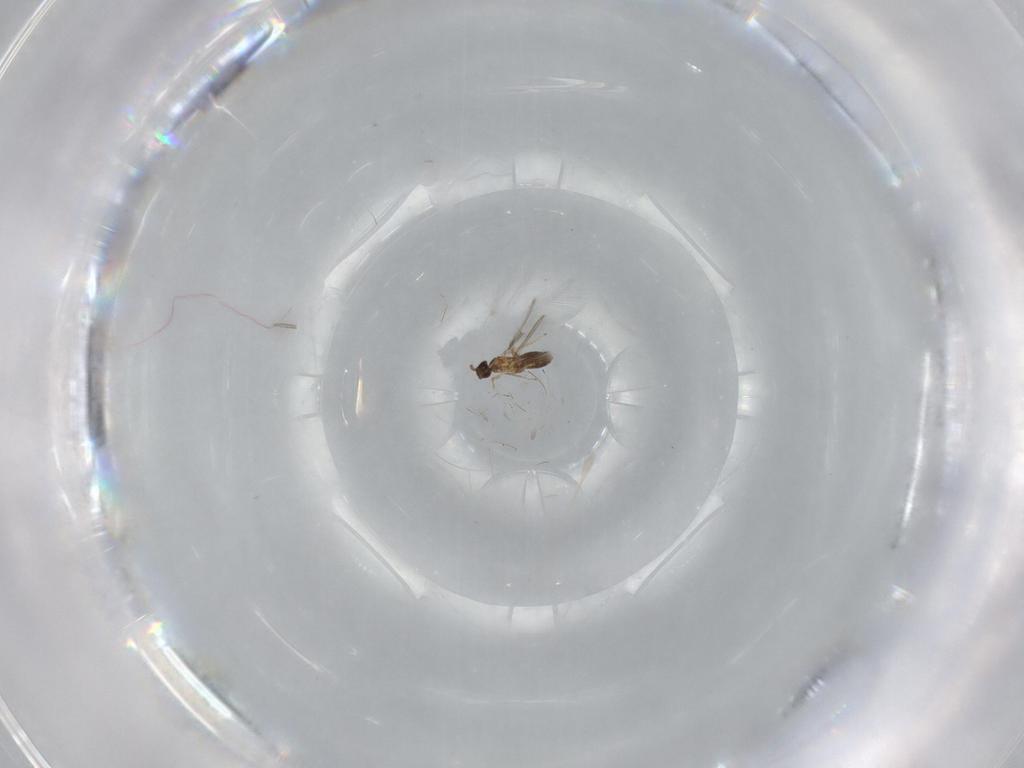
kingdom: Animalia
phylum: Arthropoda
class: Insecta
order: Hymenoptera
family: Mymaridae
